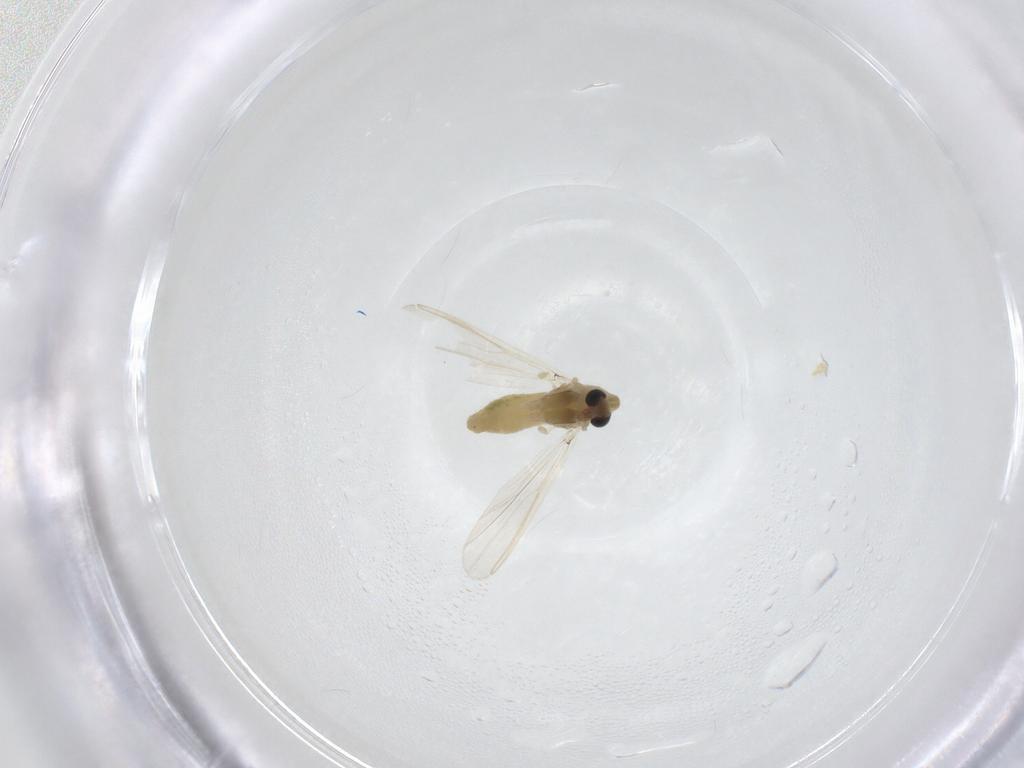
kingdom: Animalia
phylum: Arthropoda
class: Insecta
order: Diptera
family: Chironomidae
